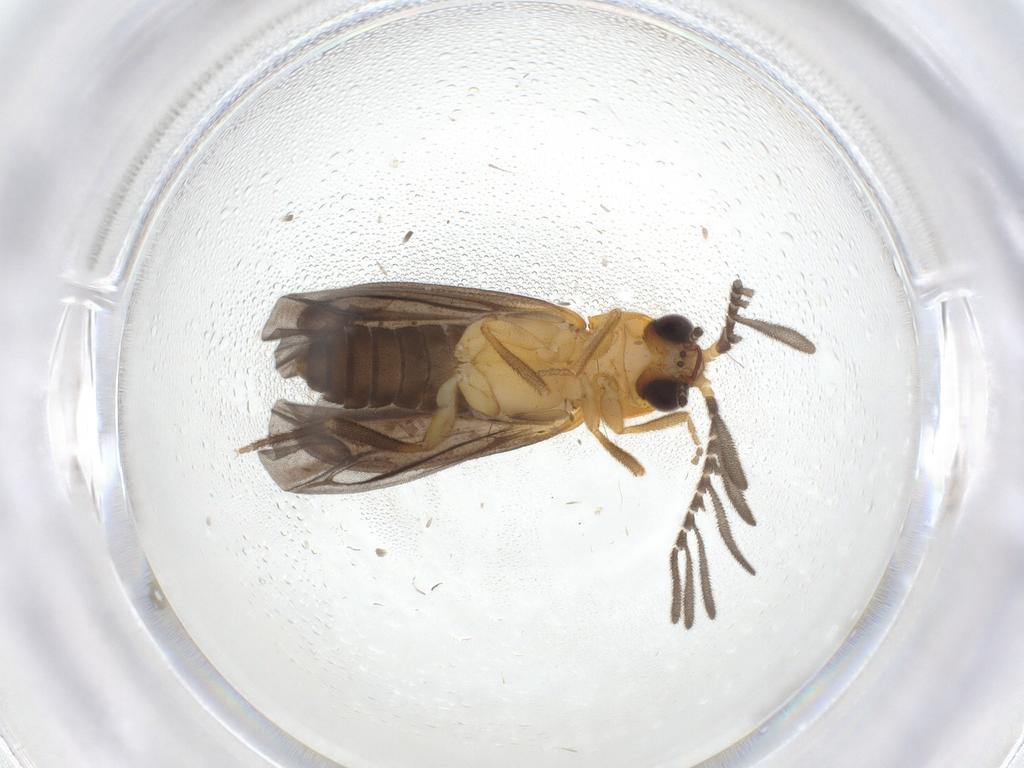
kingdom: Animalia
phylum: Arthropoda
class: Insecta
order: Coleoptera
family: Lampyridae
